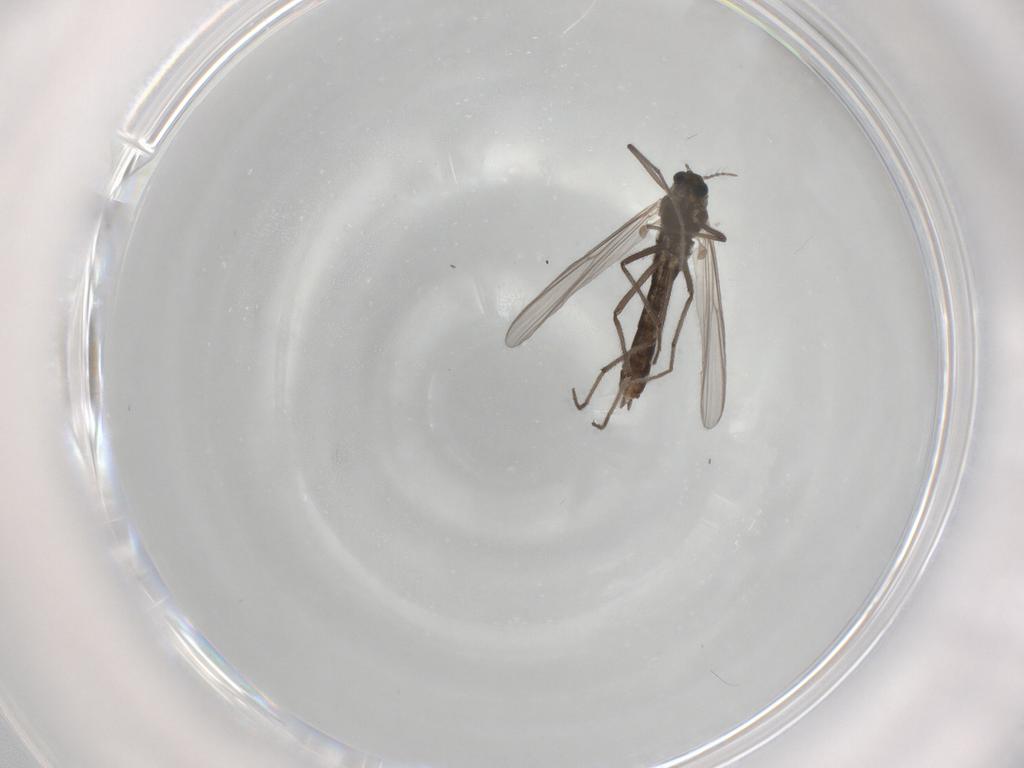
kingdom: Animalia
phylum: Arthropoda
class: Insecta
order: Diptera
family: Chironomidae
